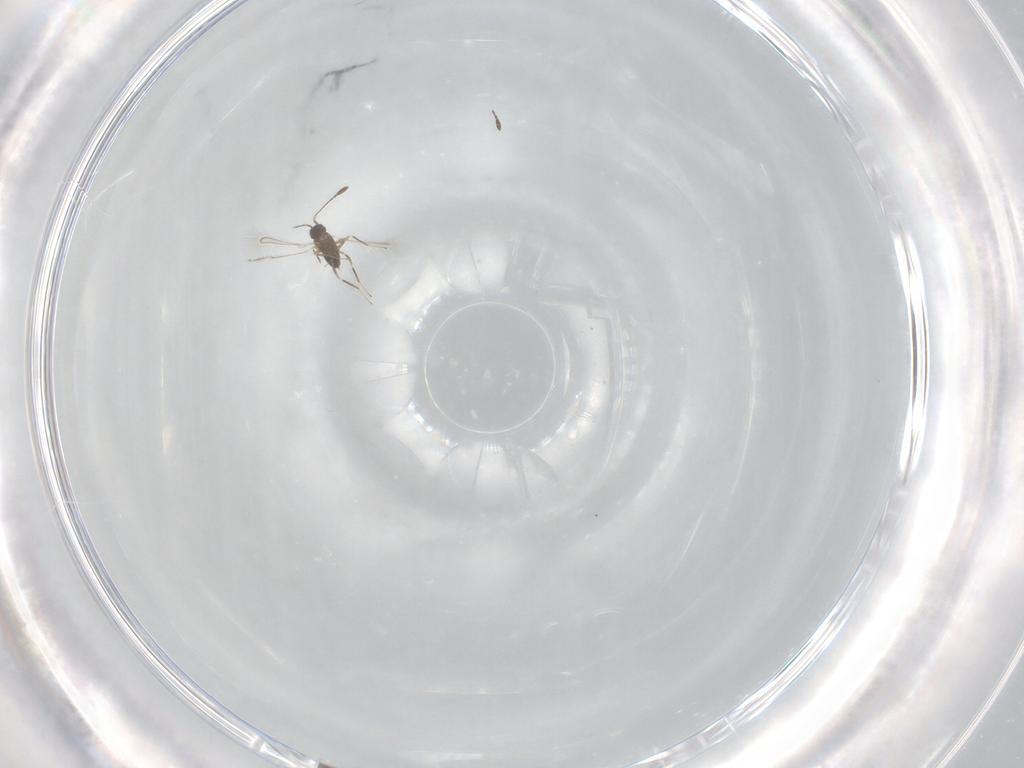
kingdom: Animalia
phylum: Arthropoda
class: Insecta
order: Hymenoptera
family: Mymaridae
